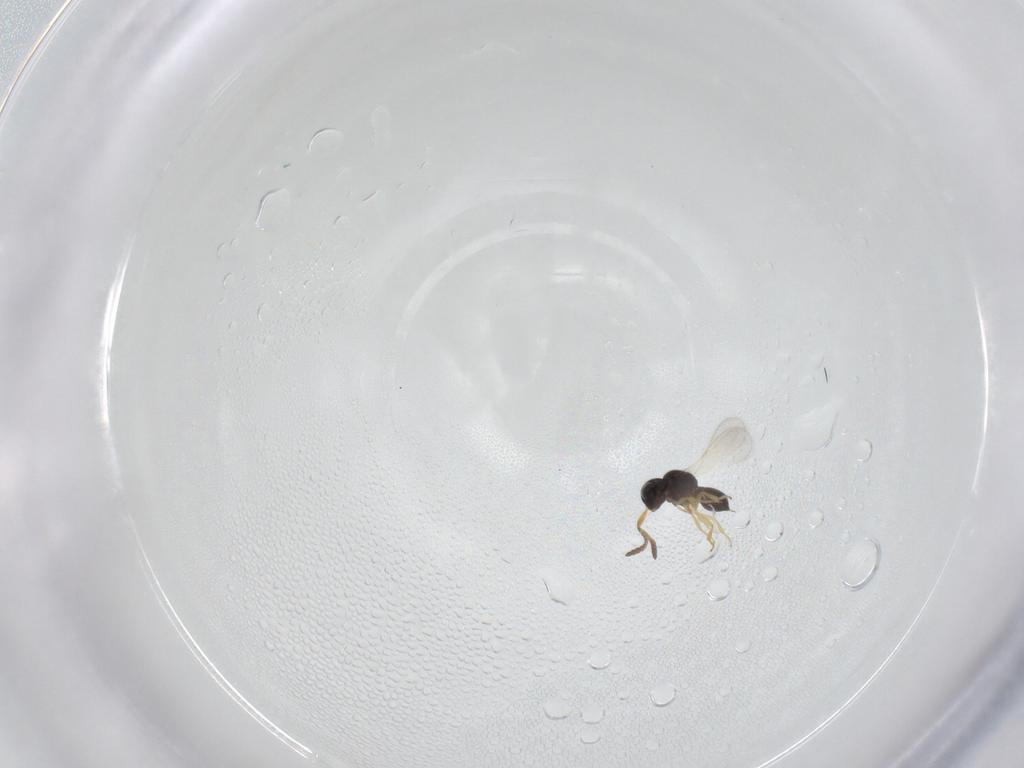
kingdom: Animalia
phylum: Arthropoda
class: Insecta
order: Hymenoptera
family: Scelionidae
